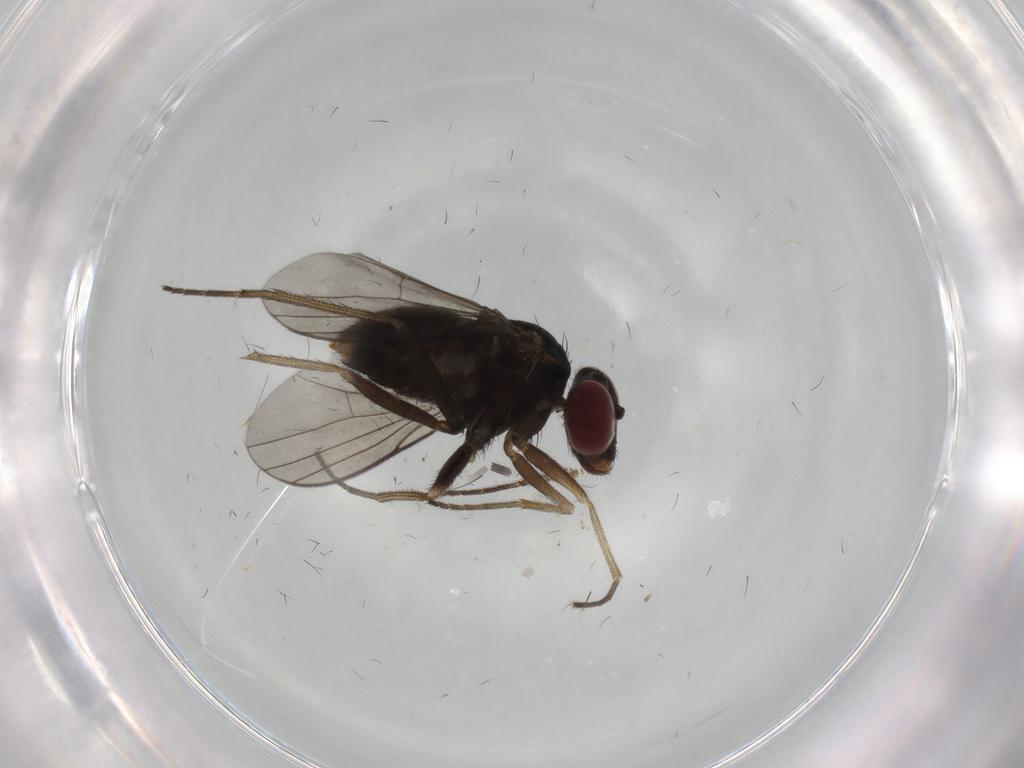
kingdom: Animalia
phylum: Arthropoda
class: Insecta
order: Diptera
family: Dolichopodidae
